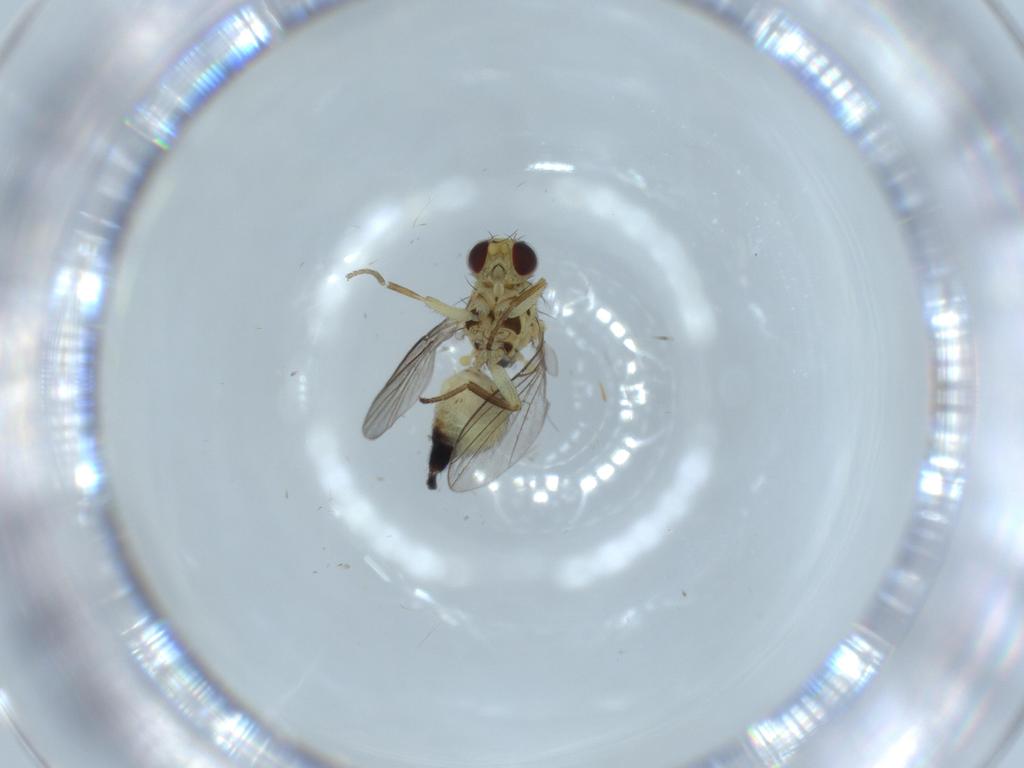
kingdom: Animalia
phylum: Arthropoda
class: Insecta
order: Diptera
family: Agromyzidae
